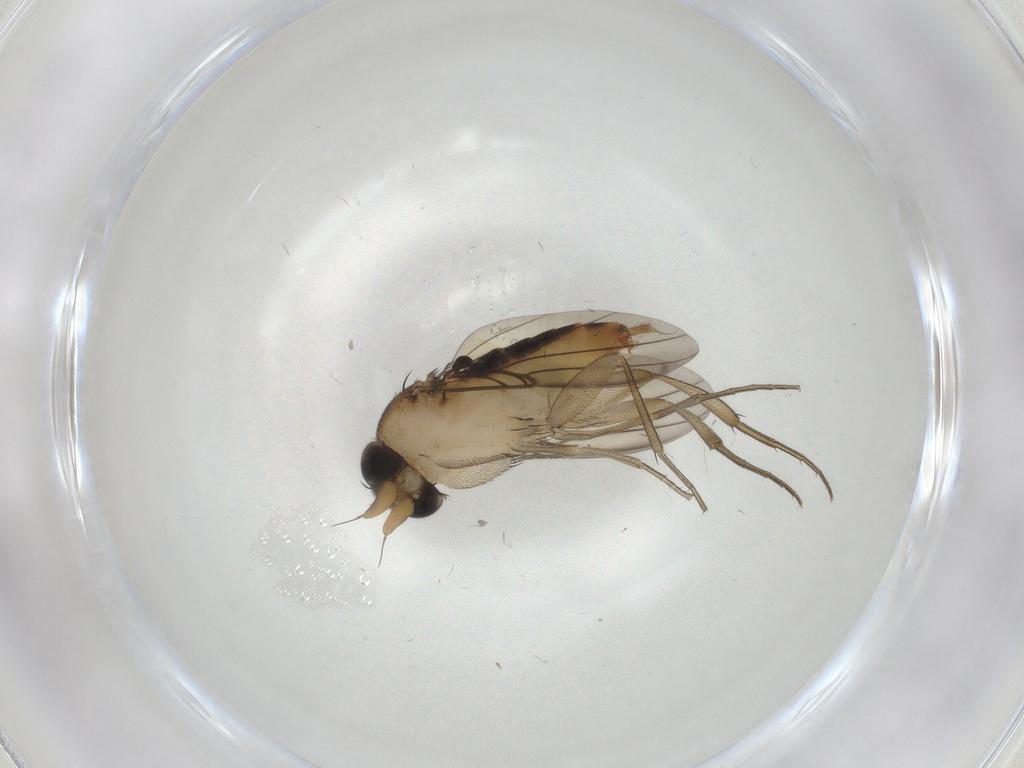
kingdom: Animalia
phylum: Arthropoda
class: Insecta
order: Diptera
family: Phoridae
